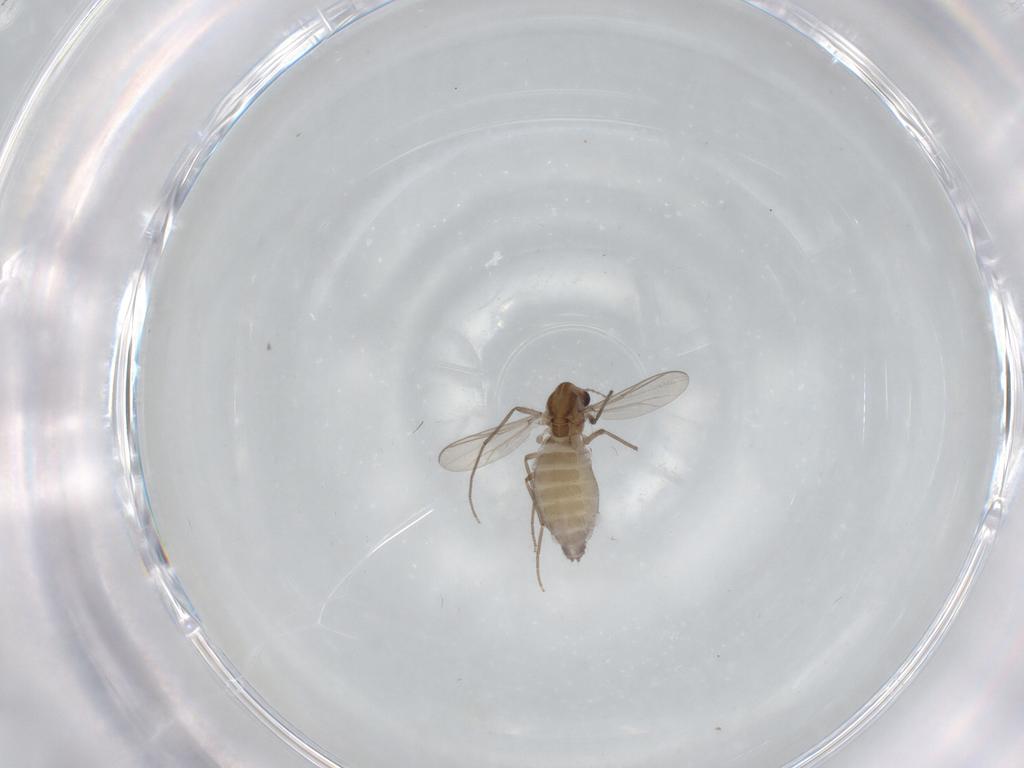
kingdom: Animalia
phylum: Arthropoda
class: Insecta
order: Diptera
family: Chironomidae
